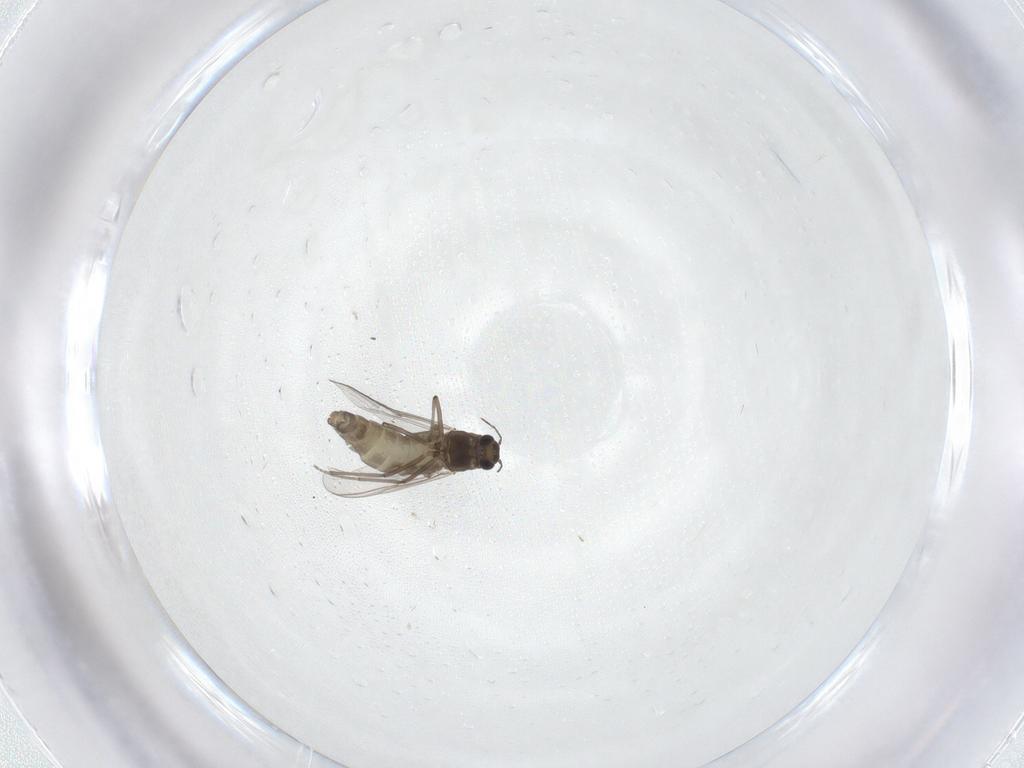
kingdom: Animalia
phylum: Arthropoda
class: Insecta
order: Diptera
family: Chironomidae
